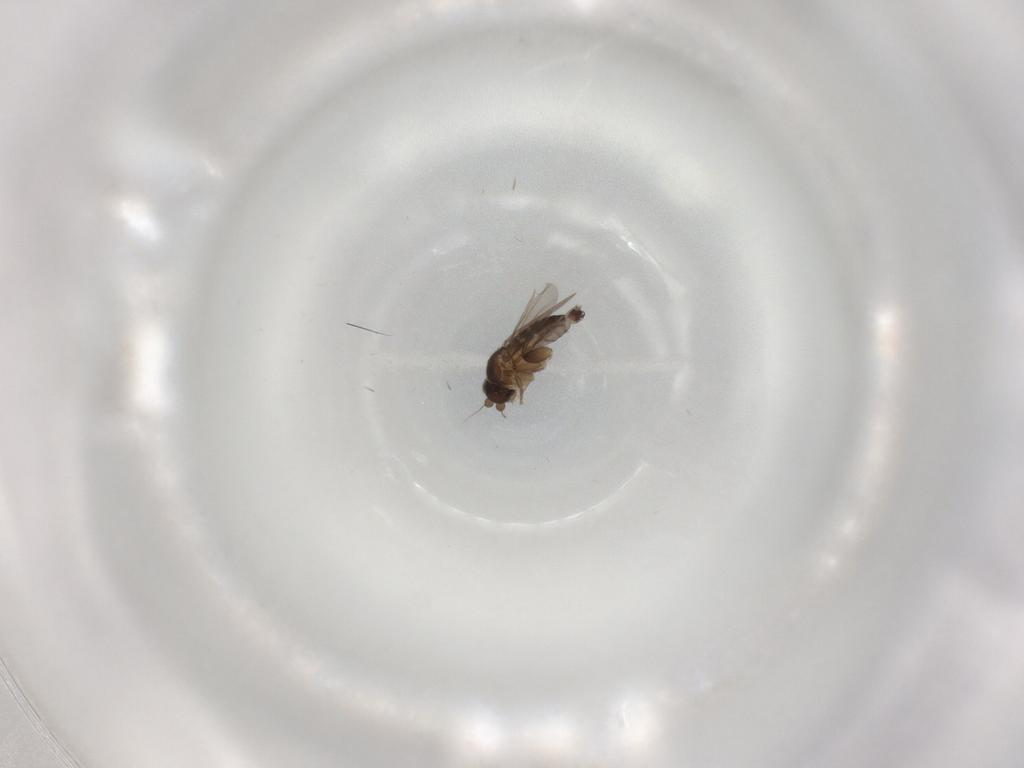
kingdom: Animalia
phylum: Arthropoda
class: Insecta
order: Diptera
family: Phoridae
